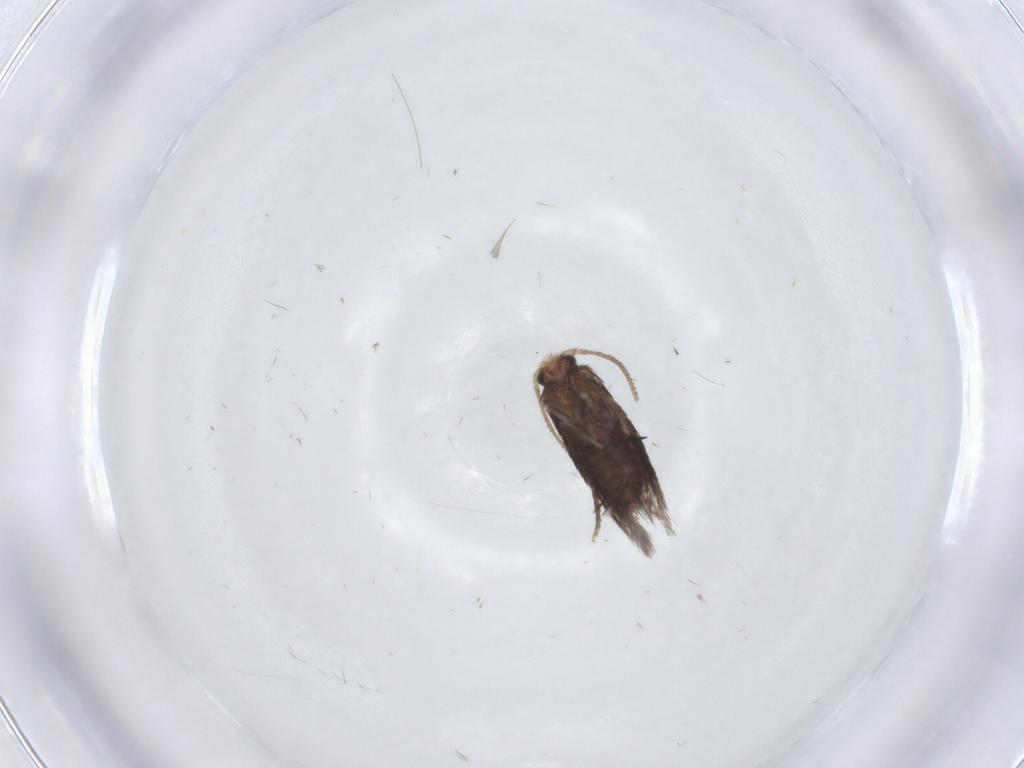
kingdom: Animalia
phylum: Arthropoda
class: Insecta
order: Lepidoptera
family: Nepticulidae
